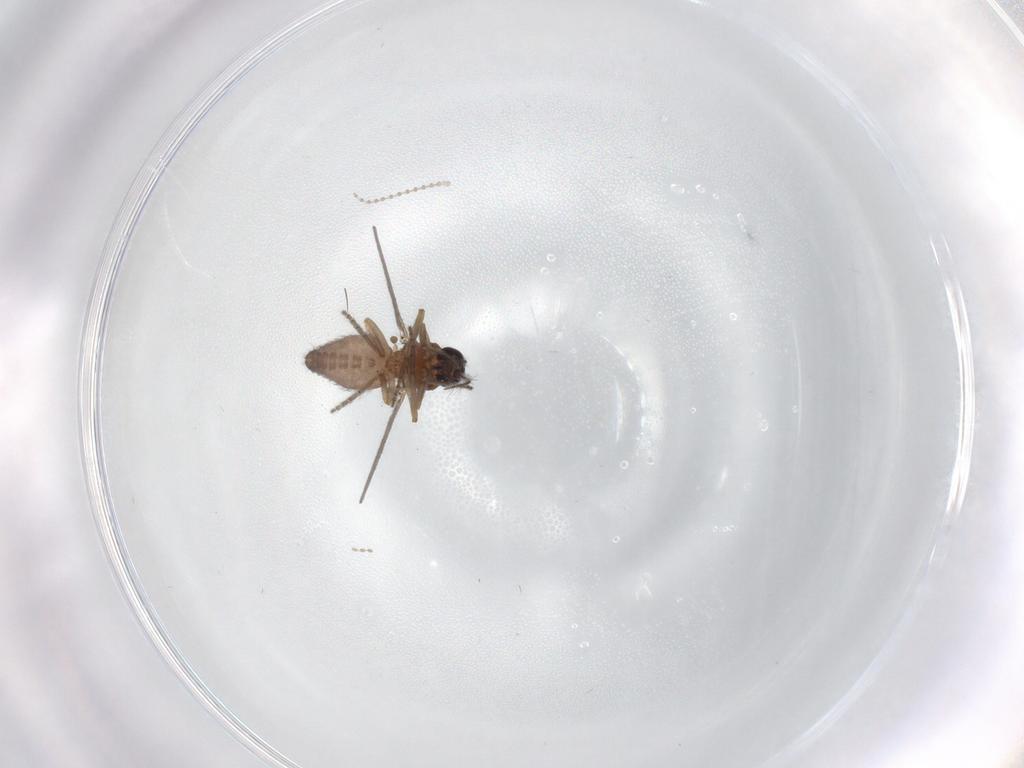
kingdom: Animalia
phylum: Arthropoda
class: Insecta
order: Diptera
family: Ceratopogonidae
